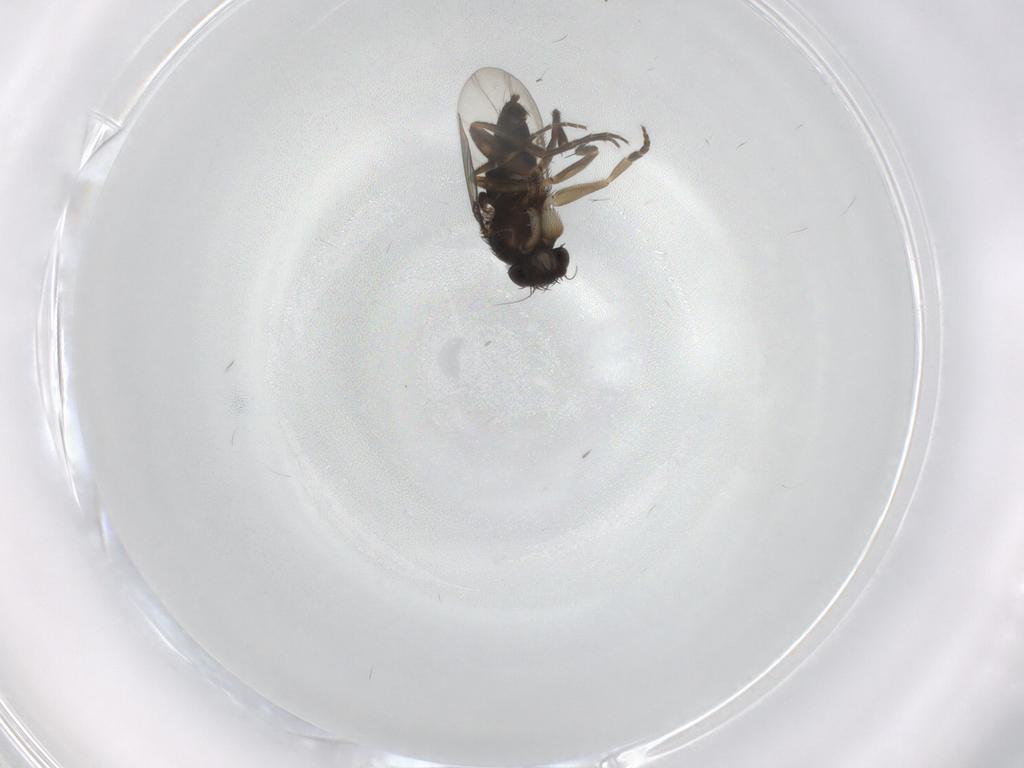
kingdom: Animalia
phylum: Arthropoda
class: Insecta
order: Diptera
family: Phoridae
